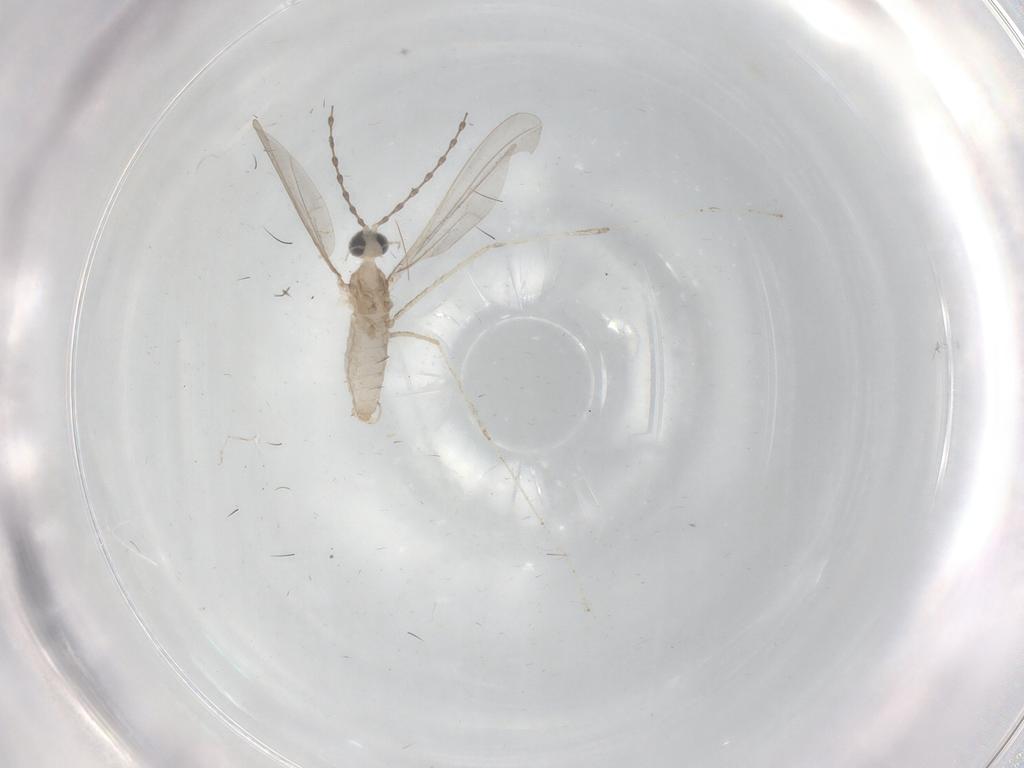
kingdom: Animalia
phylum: Arthropoda
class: Insecta
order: Diptera
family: Cecidomyiidae
